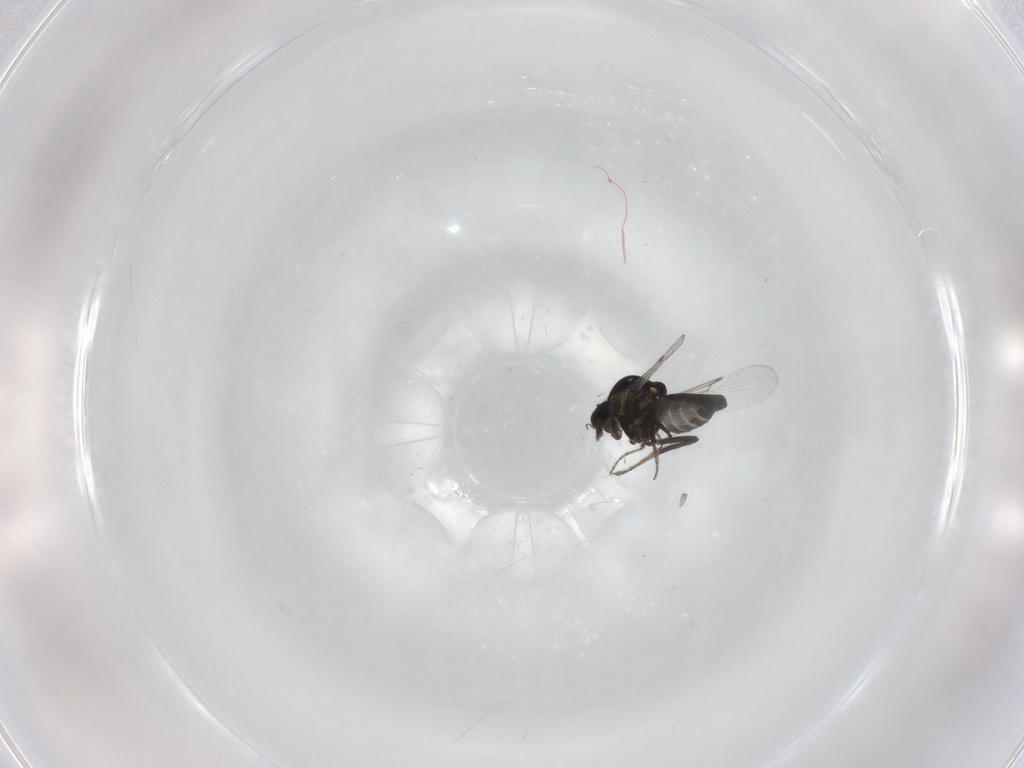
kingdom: Animalia
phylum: Arthropoda
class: Insecta
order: Diptera
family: Ceratopogonidae
